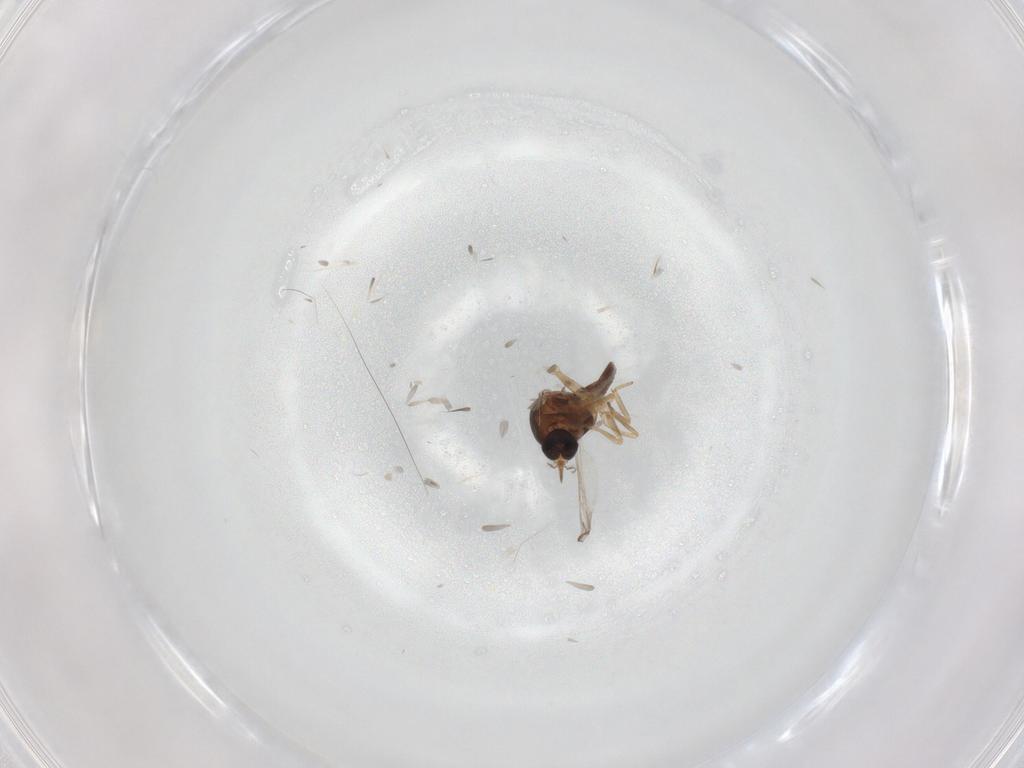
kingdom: Animalia
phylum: Arthropoda
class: Insecta
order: Diptera
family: Ceratopogonidae
